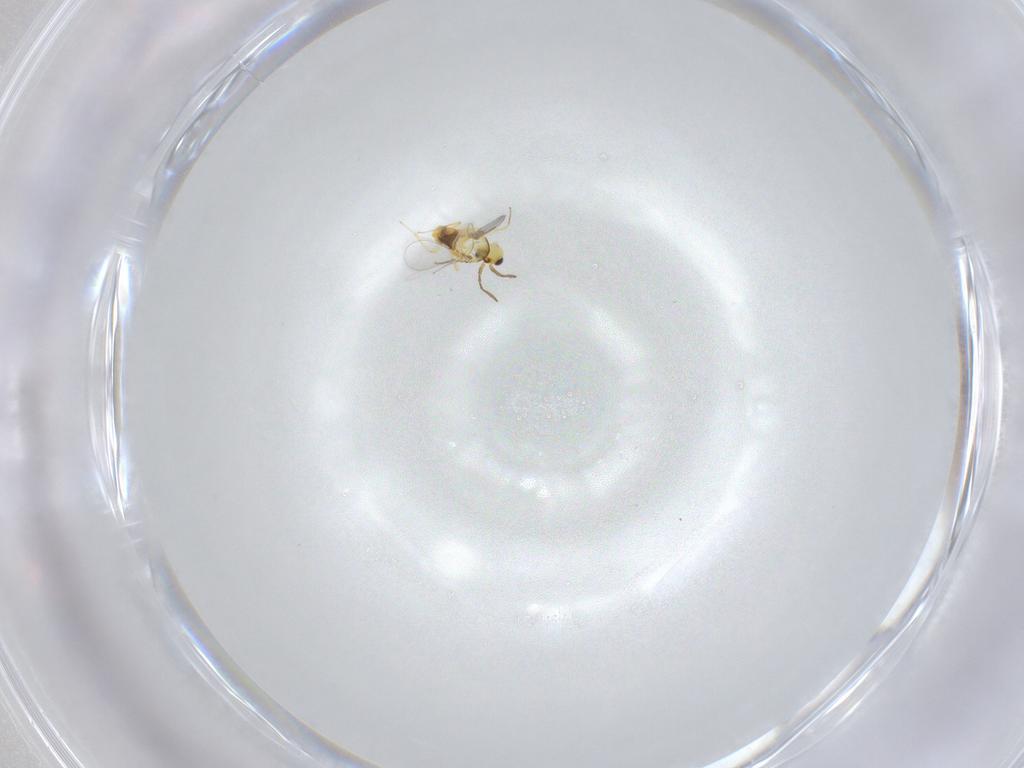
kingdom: Animalia
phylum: Arthropoda
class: Insecta
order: Hymenoptera
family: Aphelinidae
